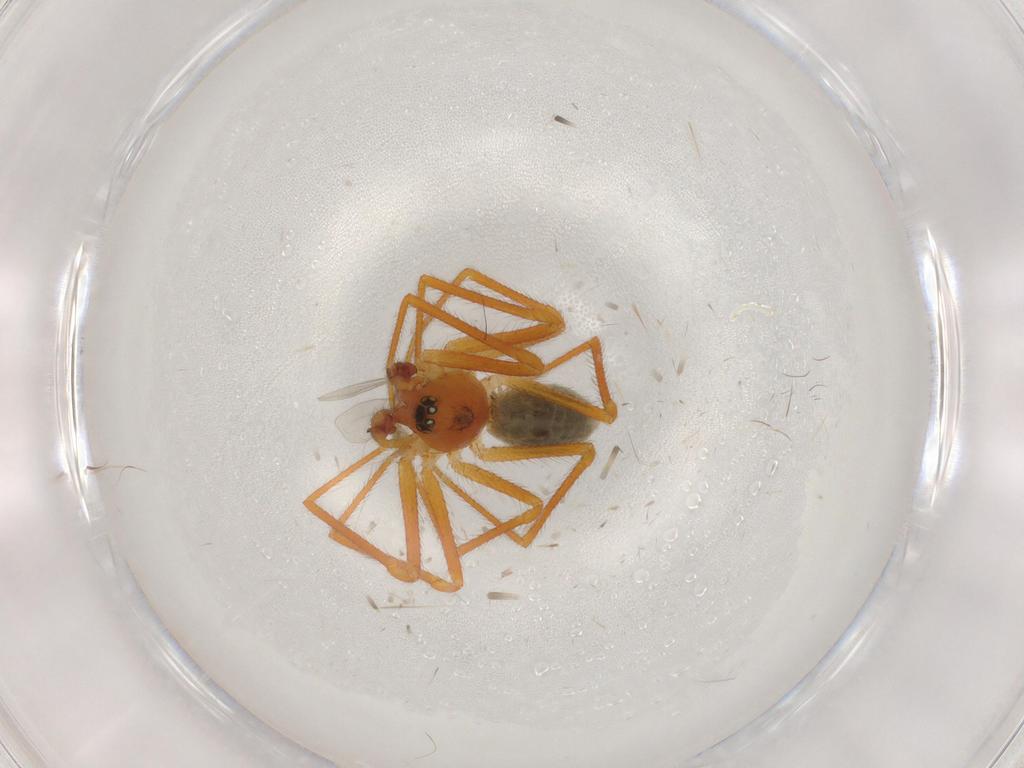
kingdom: Animalia
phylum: Arthropoda
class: Arachnida
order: Araneae
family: Linyphiidae
